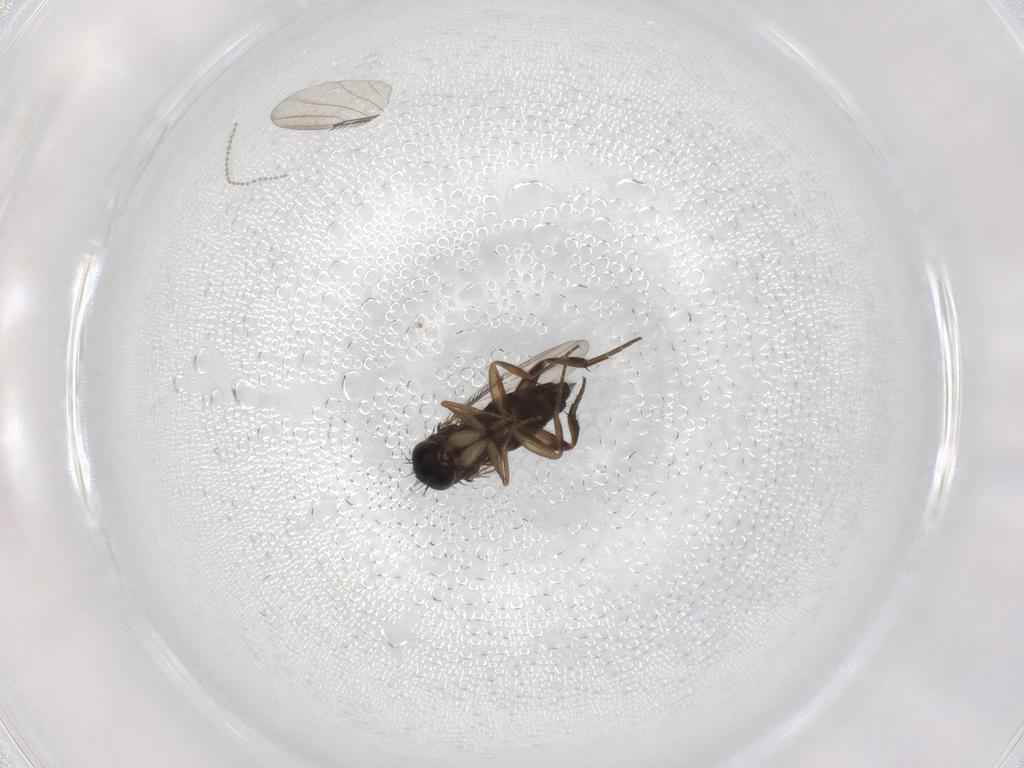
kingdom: Animalia
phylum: Arthropoda
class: Insecta
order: Diptera
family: Phoridae
